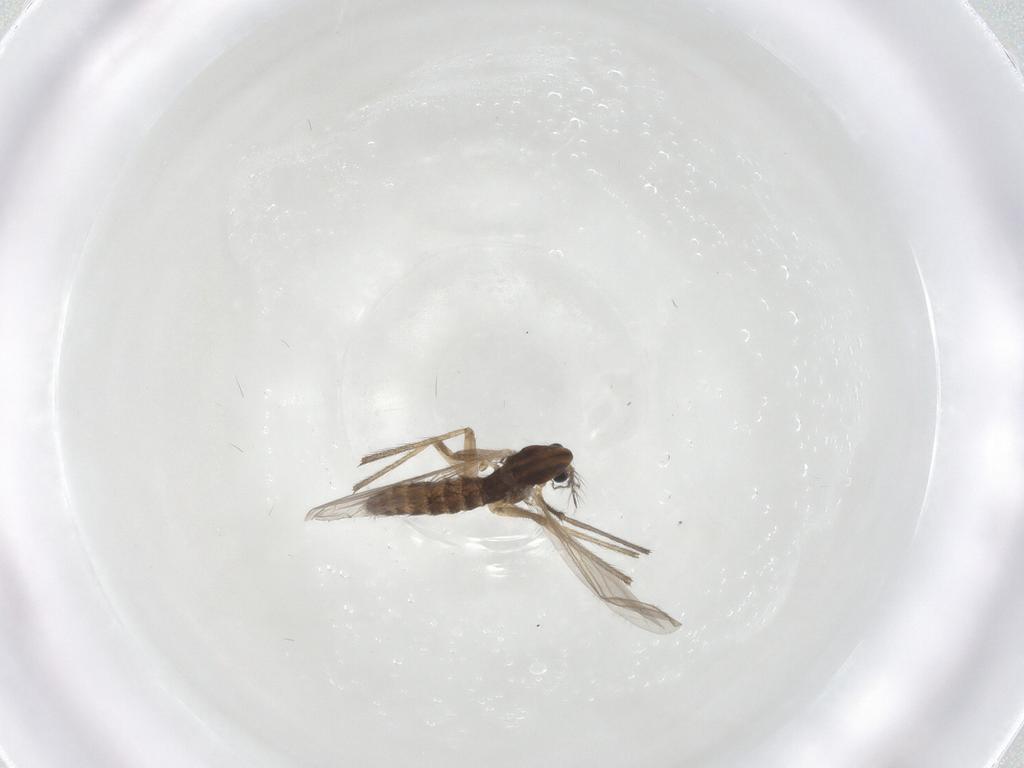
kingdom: Animalia
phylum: Arthropoda
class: Insecta
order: Diptera
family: Chironomidae
